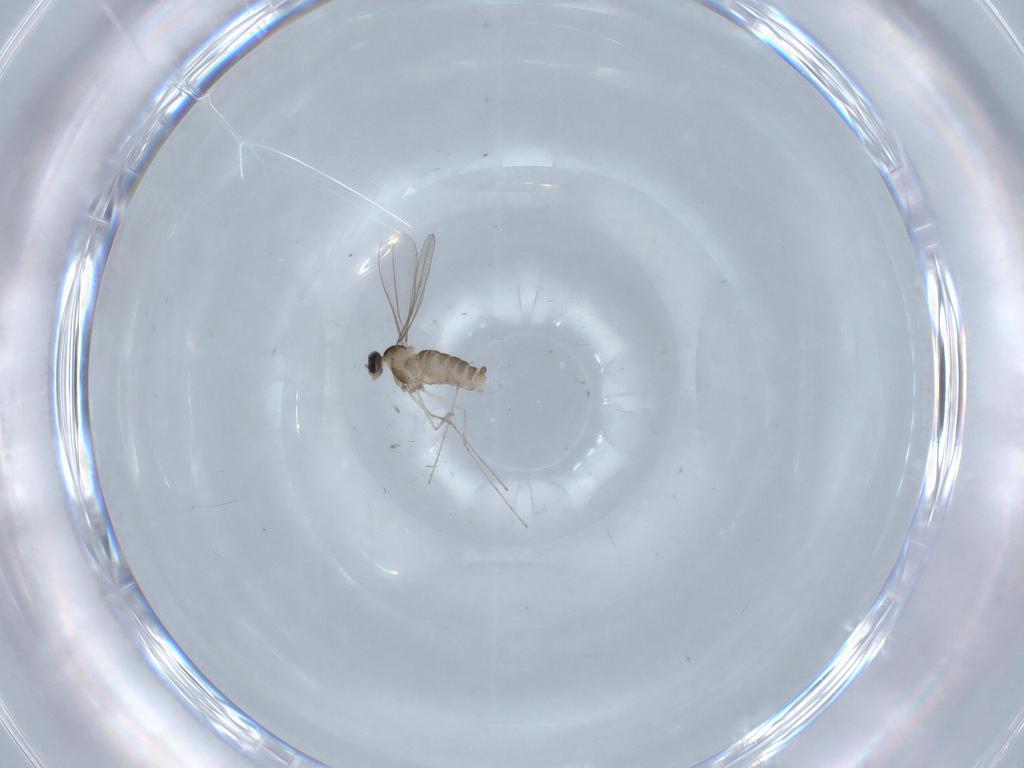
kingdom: Animalia
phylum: Arthropoda
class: Insecta
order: Diptera
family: Cecidomyiidae
